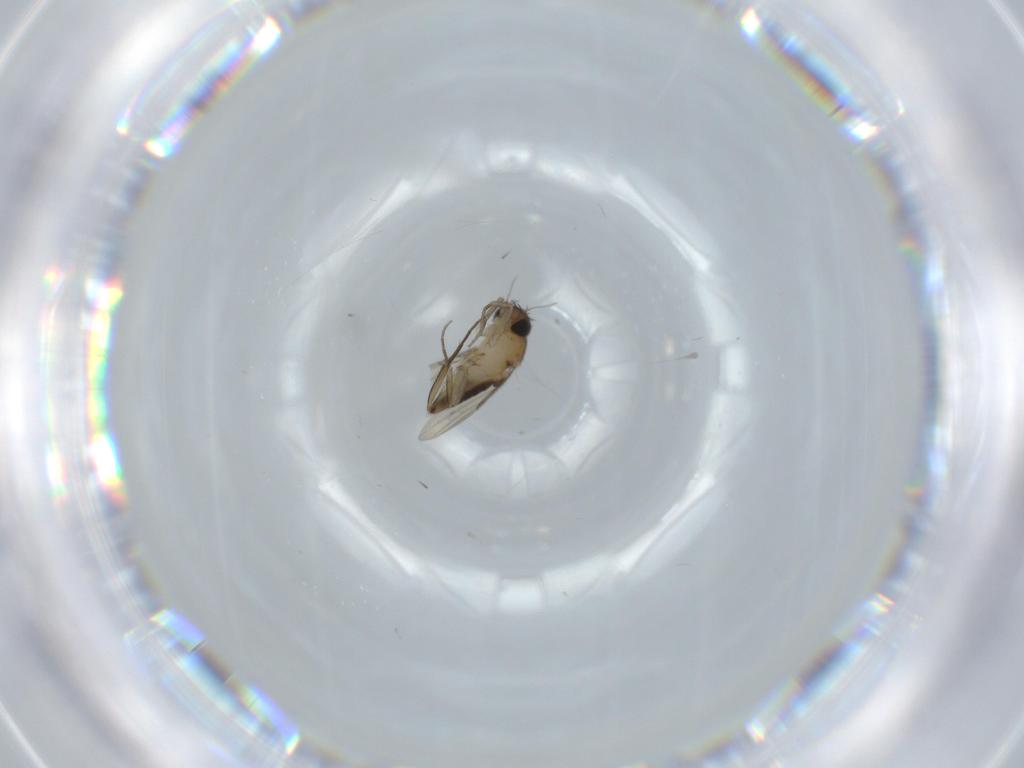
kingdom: Animalia
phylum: Arthropoda
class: Insecta
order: Diptera
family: Phoridae
